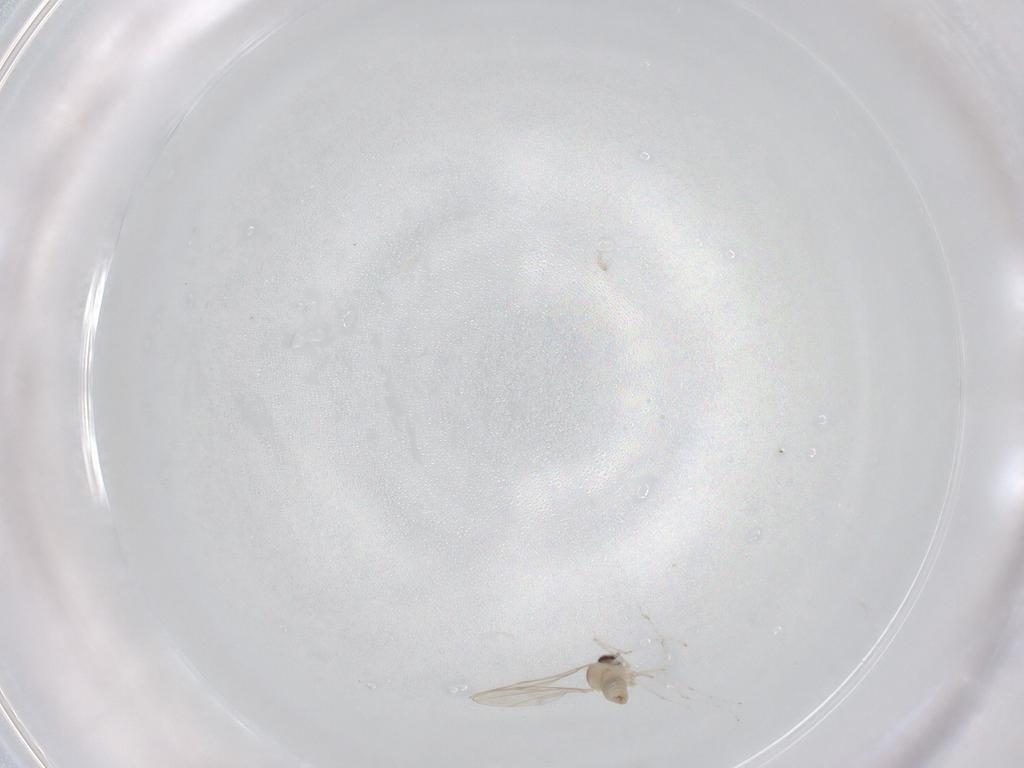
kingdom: Animalia
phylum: Arthropoda
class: Insecta
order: Diptera
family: Cecidomyiidae
